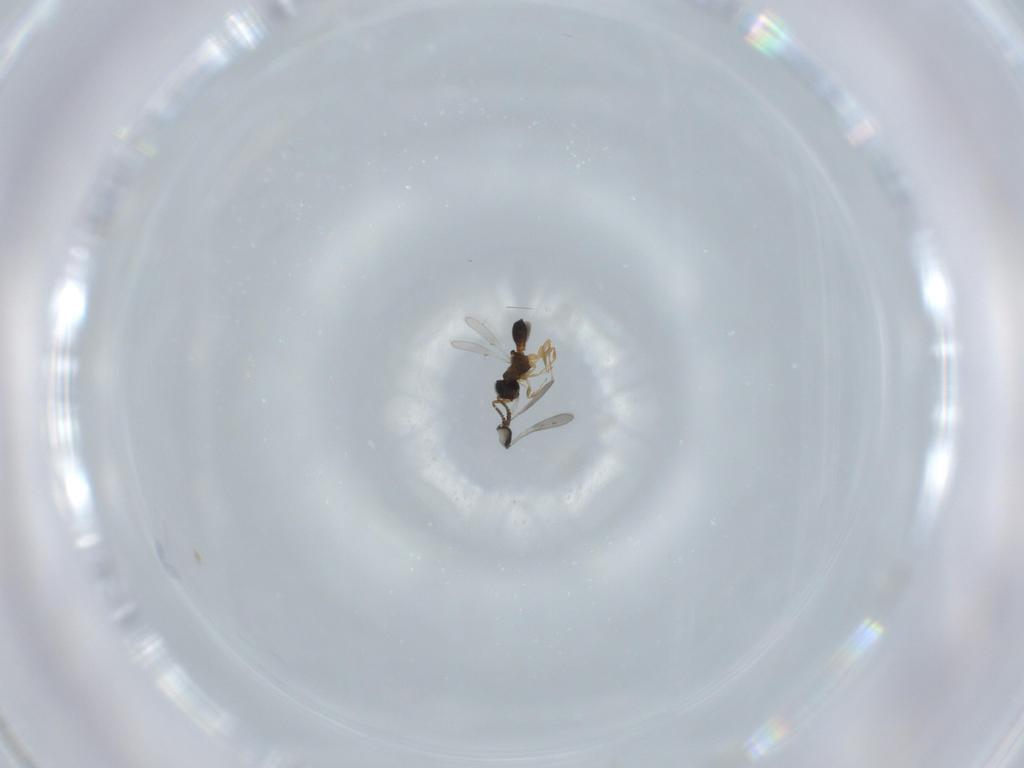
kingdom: Animalia
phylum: Arthropoda
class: Insecta
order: Hymenoptera
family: Scelionidae
